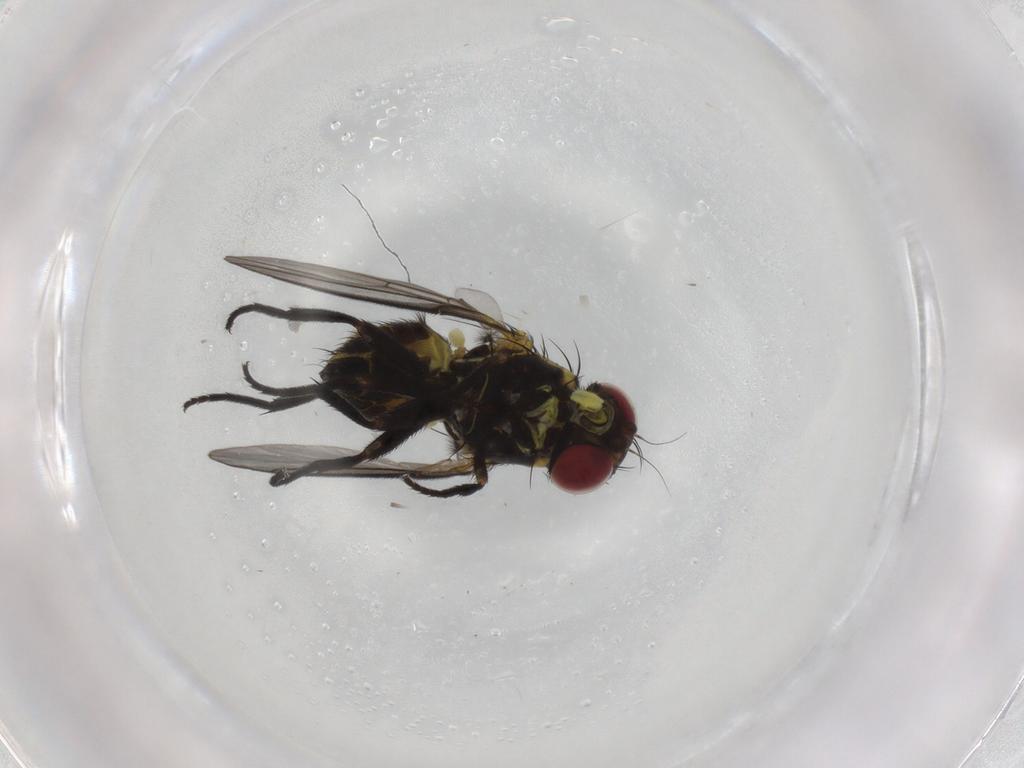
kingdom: Animalia
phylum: Arthropoda
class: Insecta
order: Diptera
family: Agromyzidae
